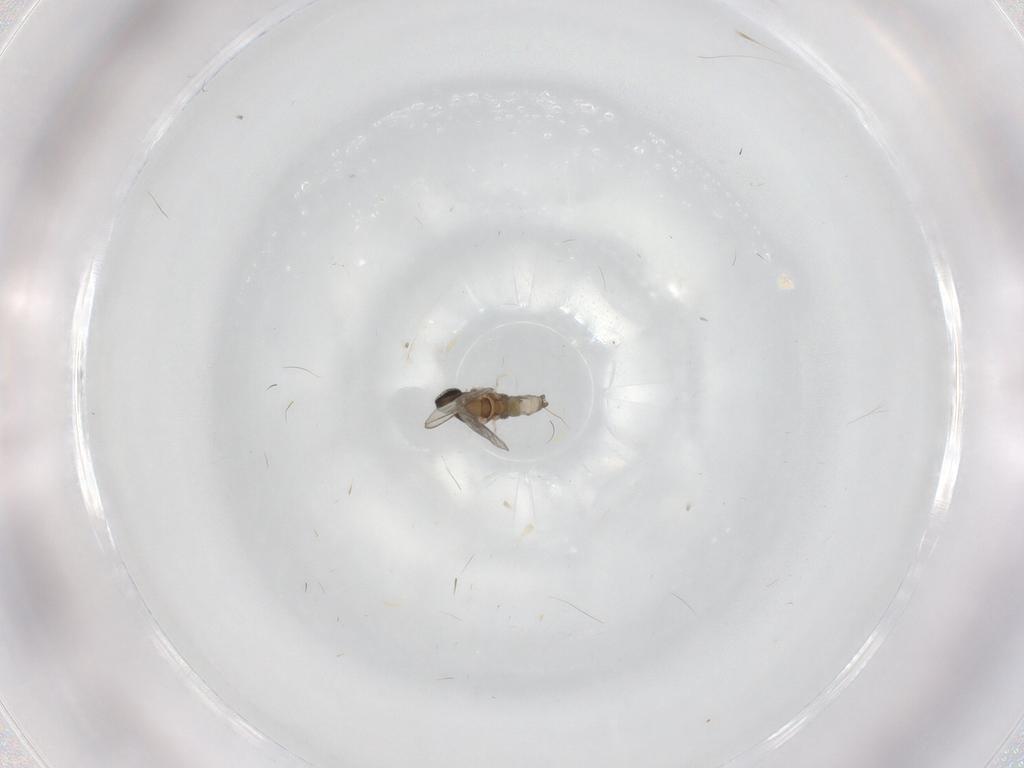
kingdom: Animalia
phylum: Arthropoda
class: Insecta
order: Diptera
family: Cecidomyiidae
